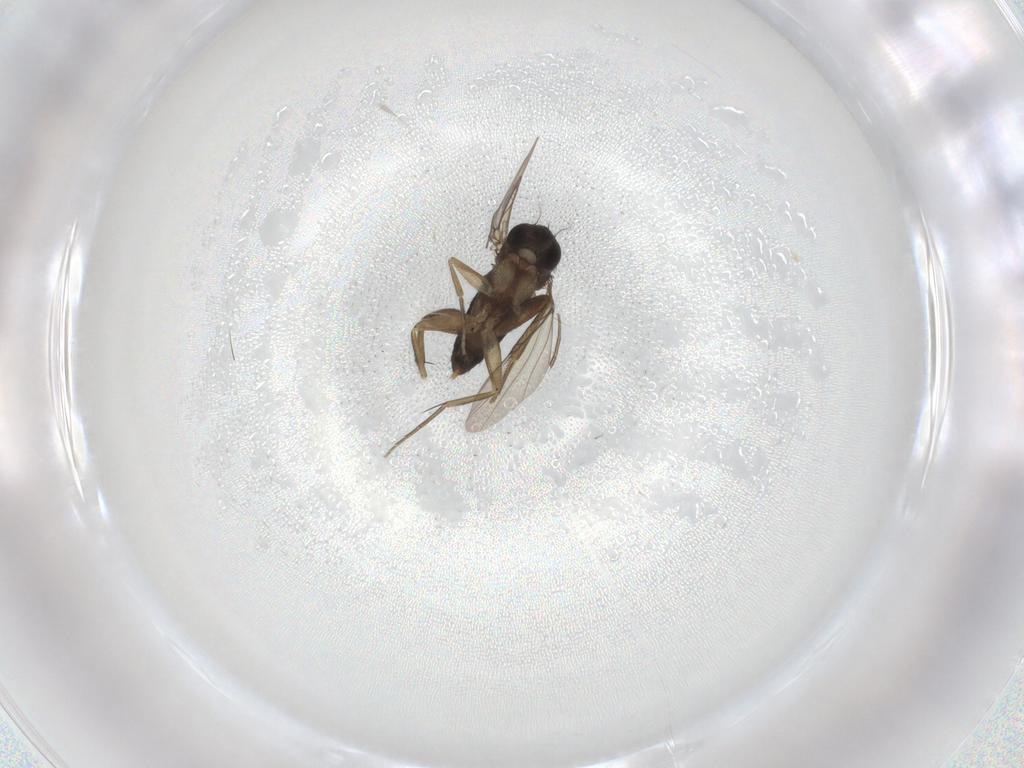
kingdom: Animalia
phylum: Arthropoda
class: Insecta
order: Diptera
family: Phoridae
